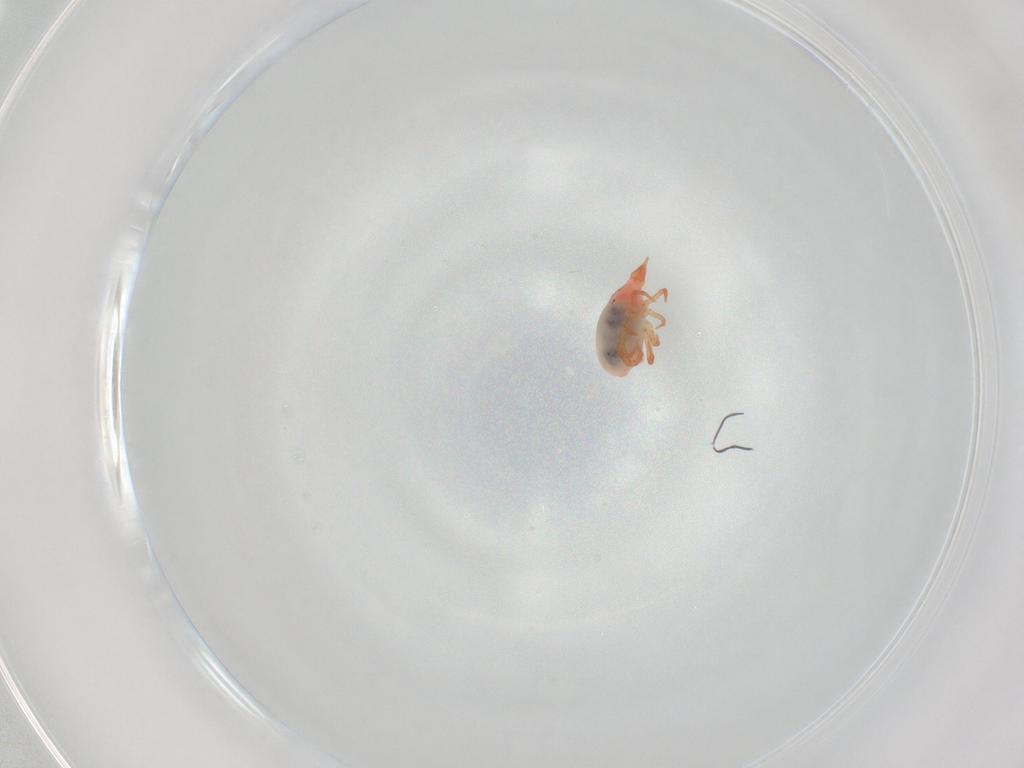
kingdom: Animalia
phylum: Arthropoda
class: Arachnida
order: Trombidiformes
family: Bdellidae
